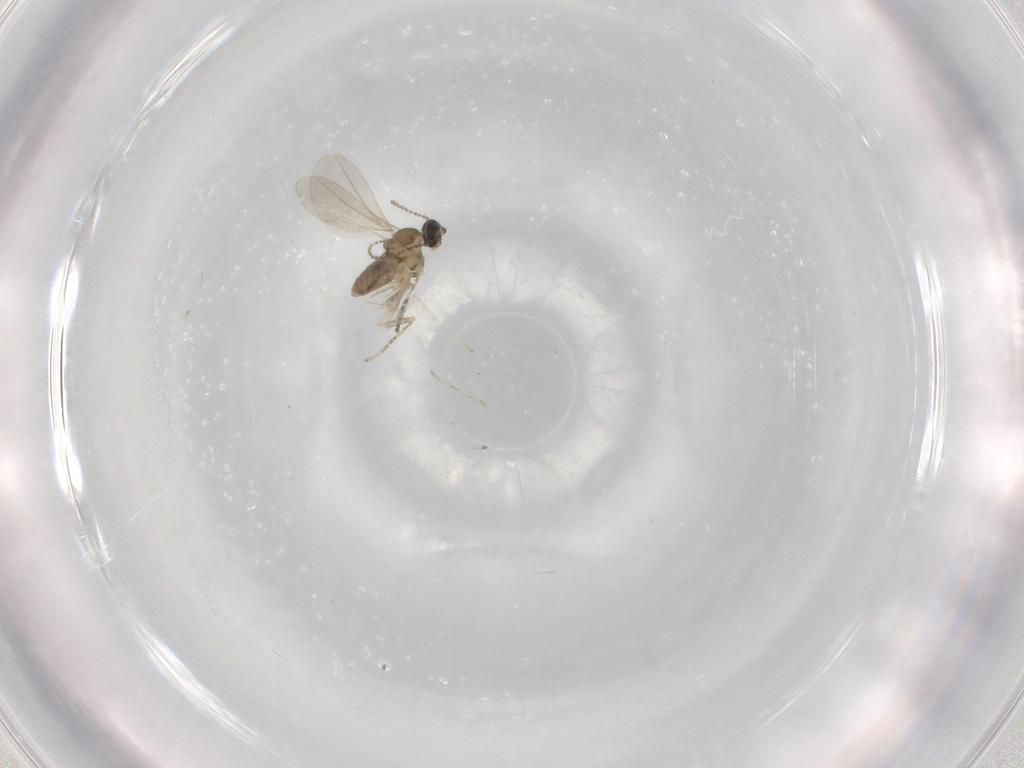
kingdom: Animalia
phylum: Arthropoda
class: Insecta
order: Diptera
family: Cecidomyiidae
